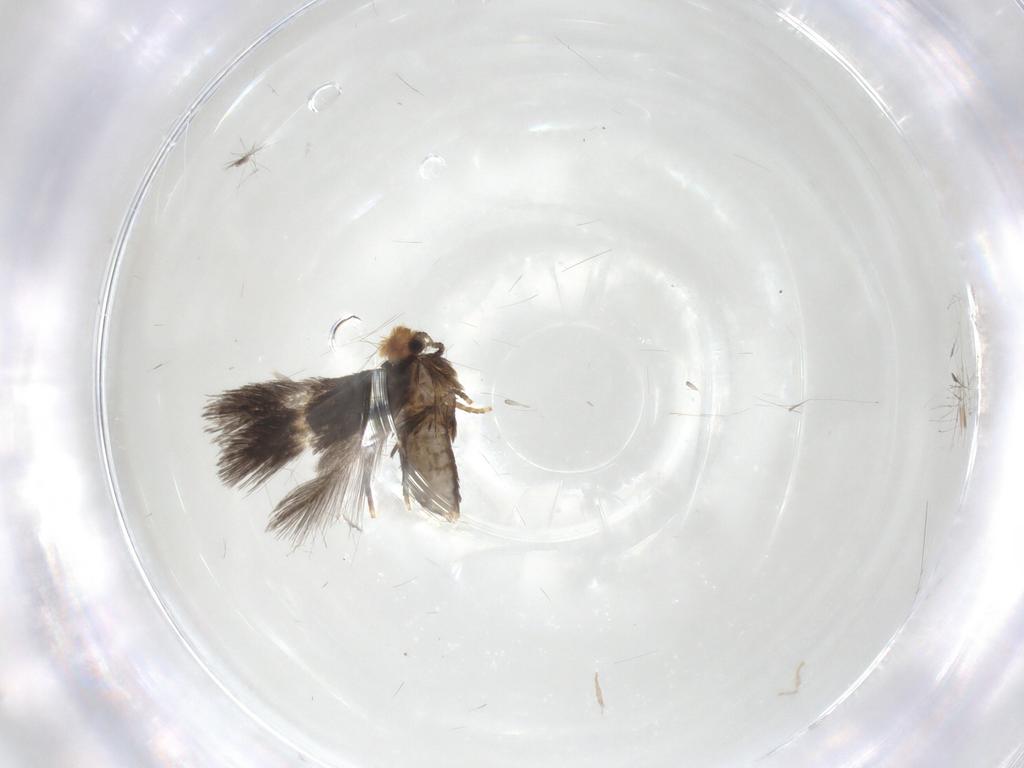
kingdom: Animalia
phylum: Arthropoda
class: Insecta
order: Lepidoptera
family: Nepticulidae
